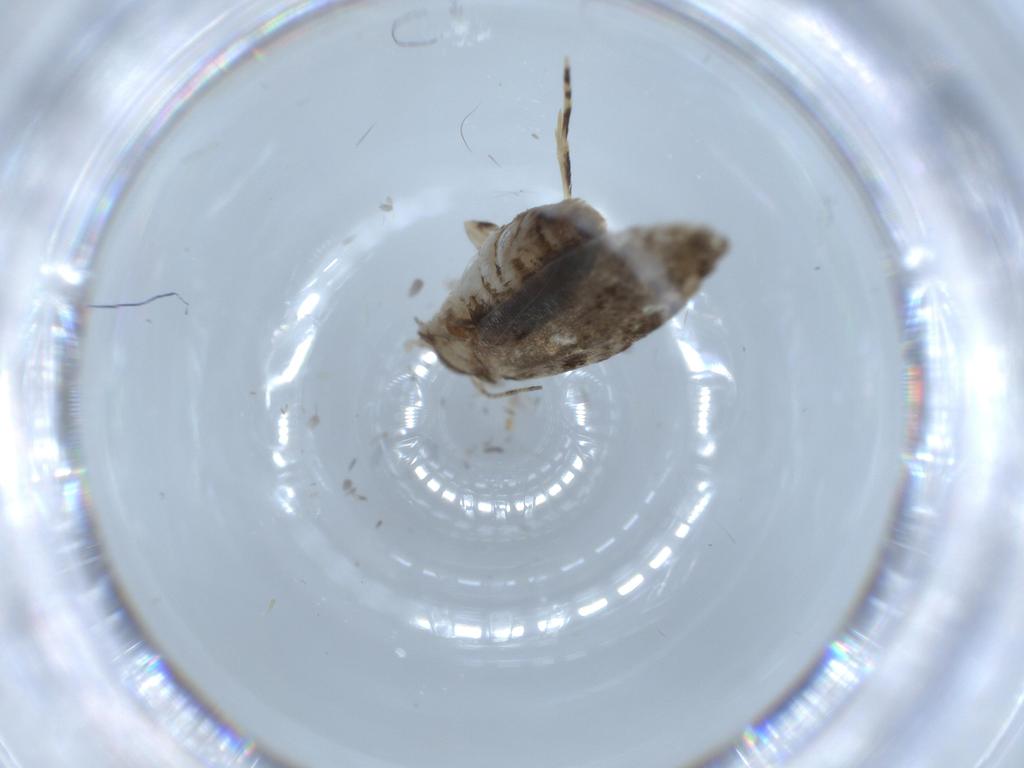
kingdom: Animalia
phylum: Arthropoda
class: Insecta
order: Lepidoptera
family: Tineidae
